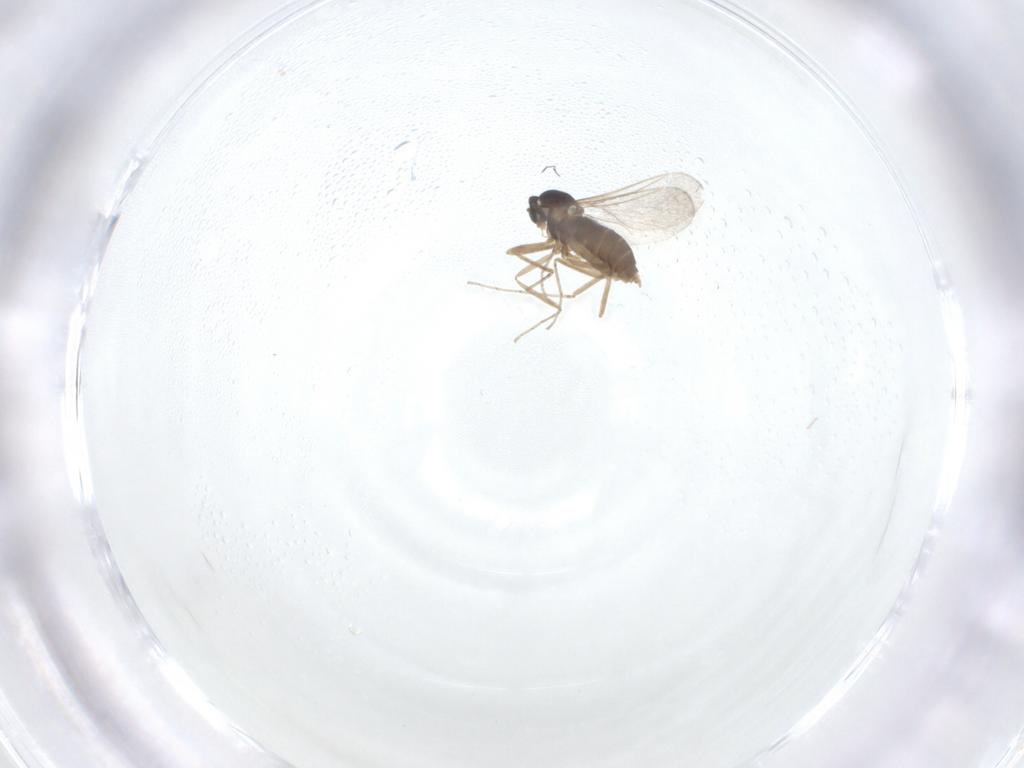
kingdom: Animalia
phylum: Arthropoda
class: Insecta
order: Diptera
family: Cecidomyiidae
